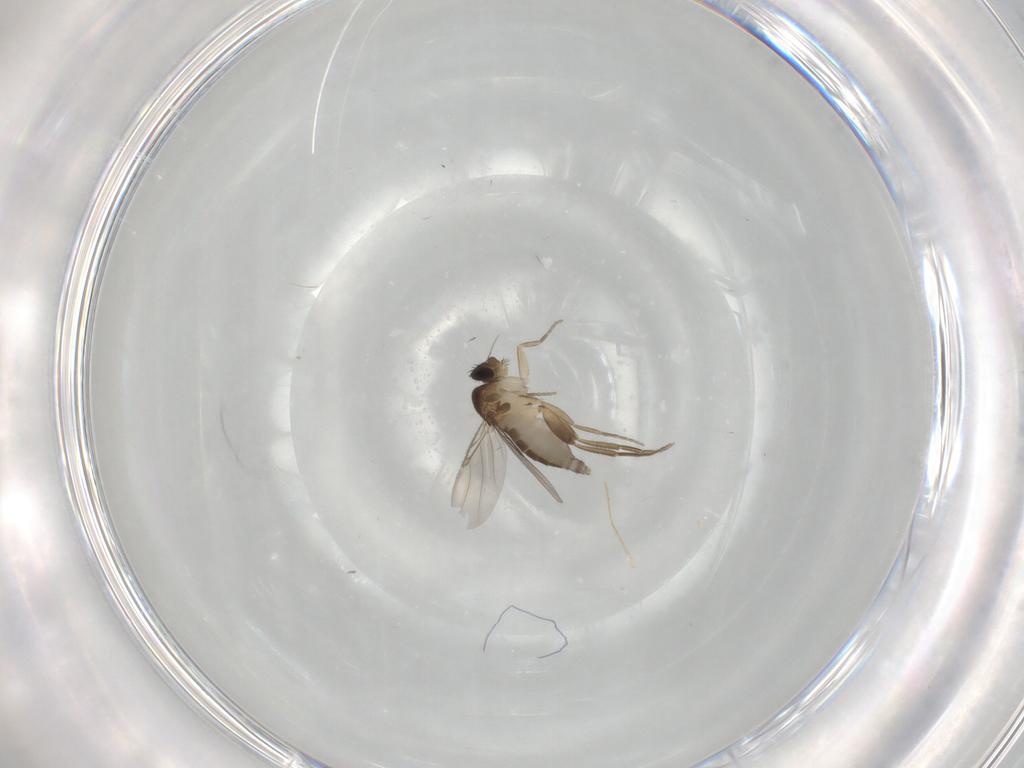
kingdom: Animalia
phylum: Arthropoda
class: Insecta
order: Diptera
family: Phoridae
